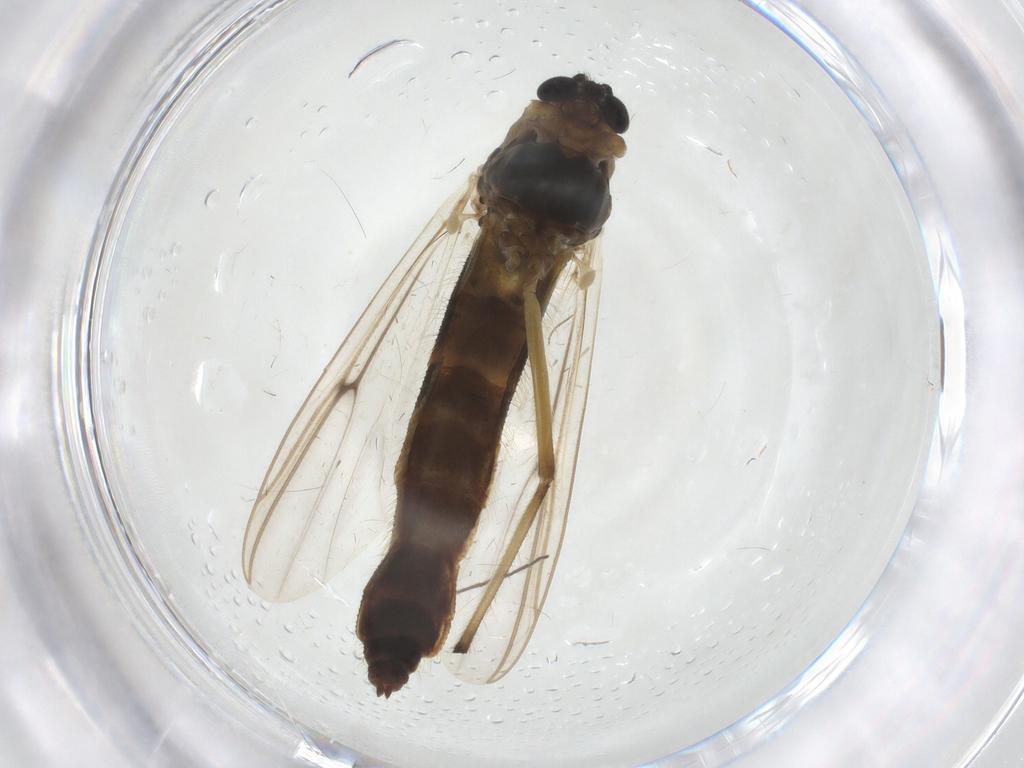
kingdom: Animalia
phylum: Arthropoda
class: Insecta
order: Diptera
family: Chironomidae
